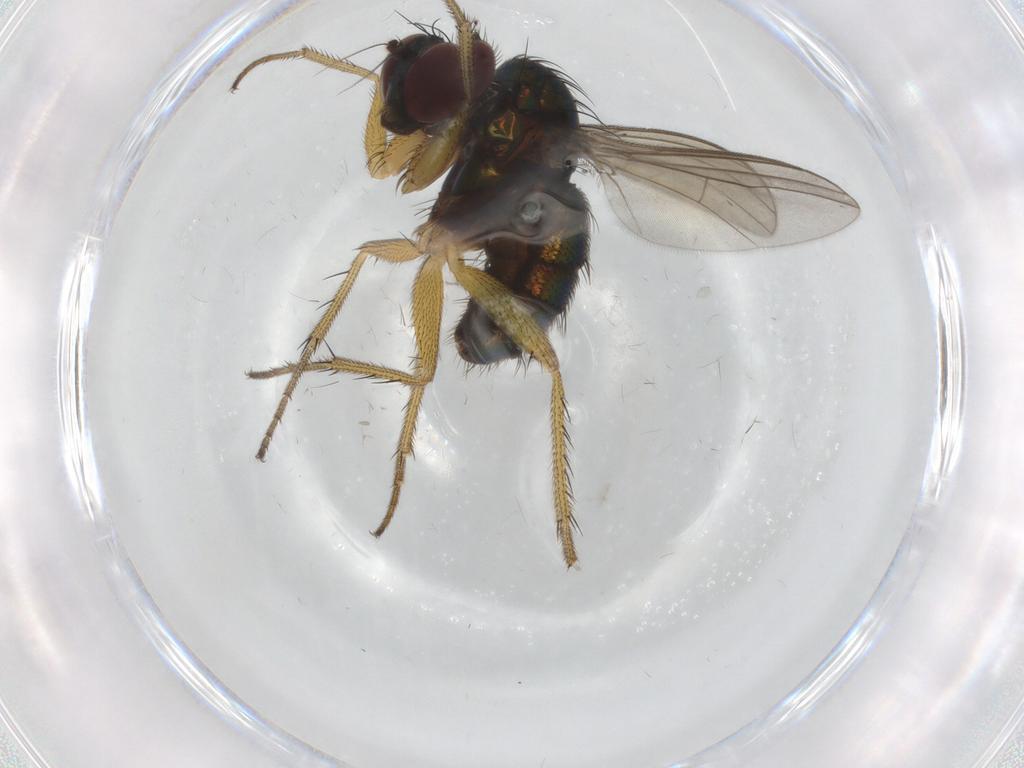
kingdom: Animalia
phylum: Arthropoda
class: Insecta
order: Diptera
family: Dolichopodidae
